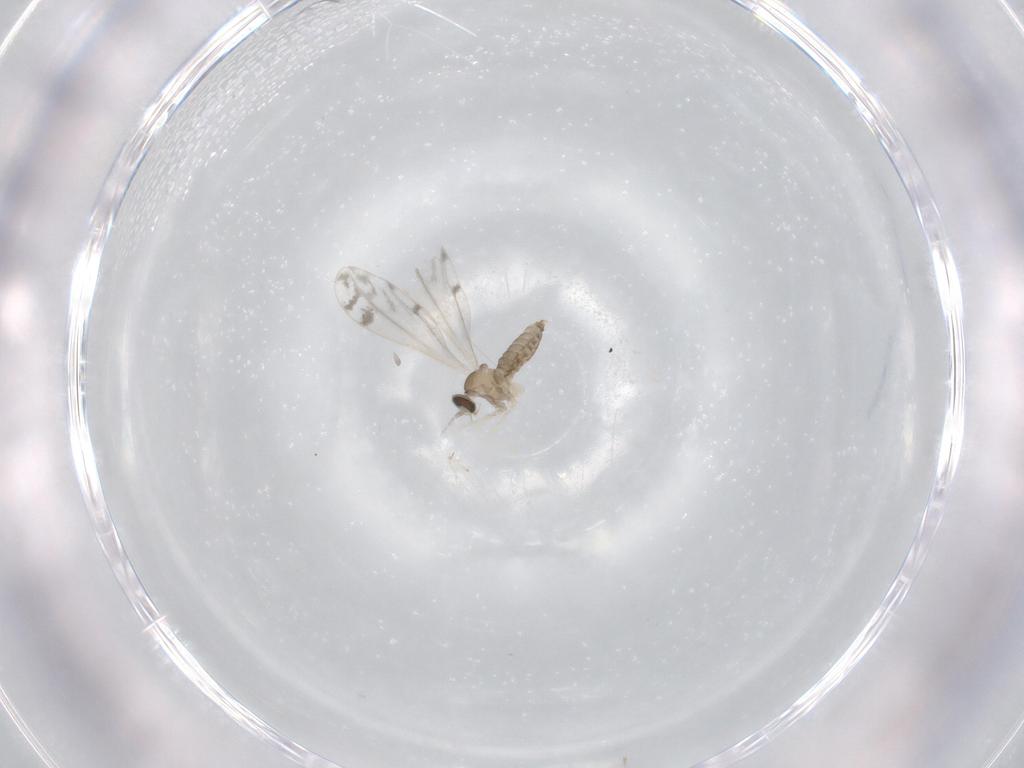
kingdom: Animalia
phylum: Arthropoda
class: Insecta
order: Diptera
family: Cecidomyiidae
